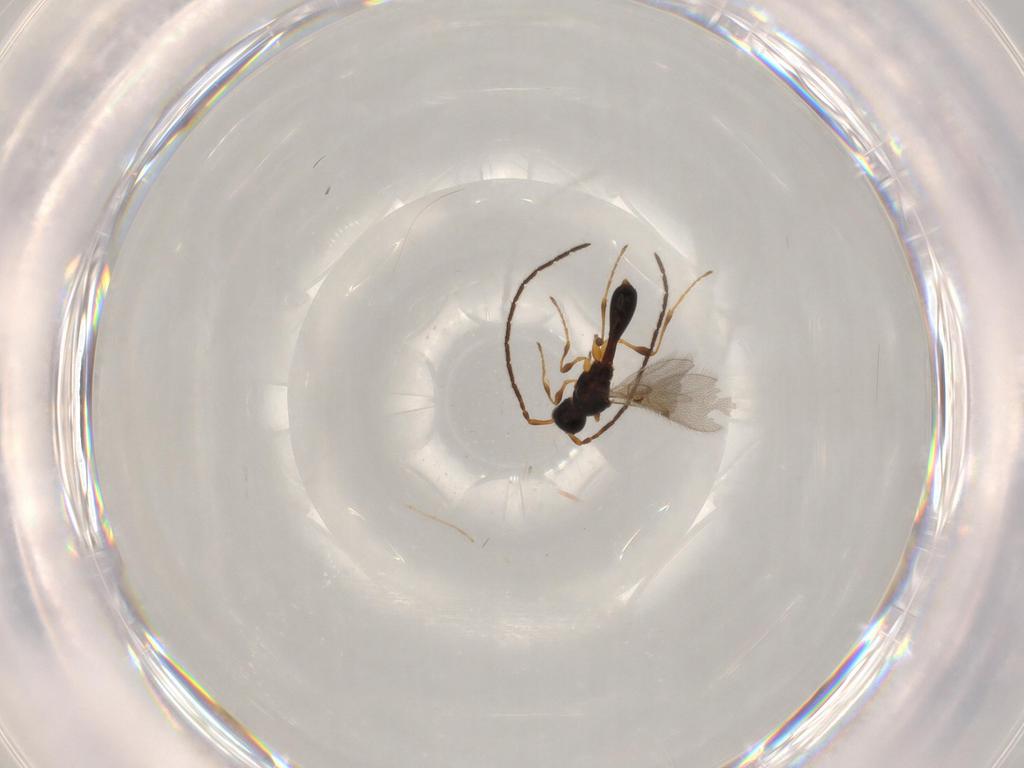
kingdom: Animalia
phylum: Arthropoda
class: Insecta
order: Hymenoptera
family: Diapriidae
